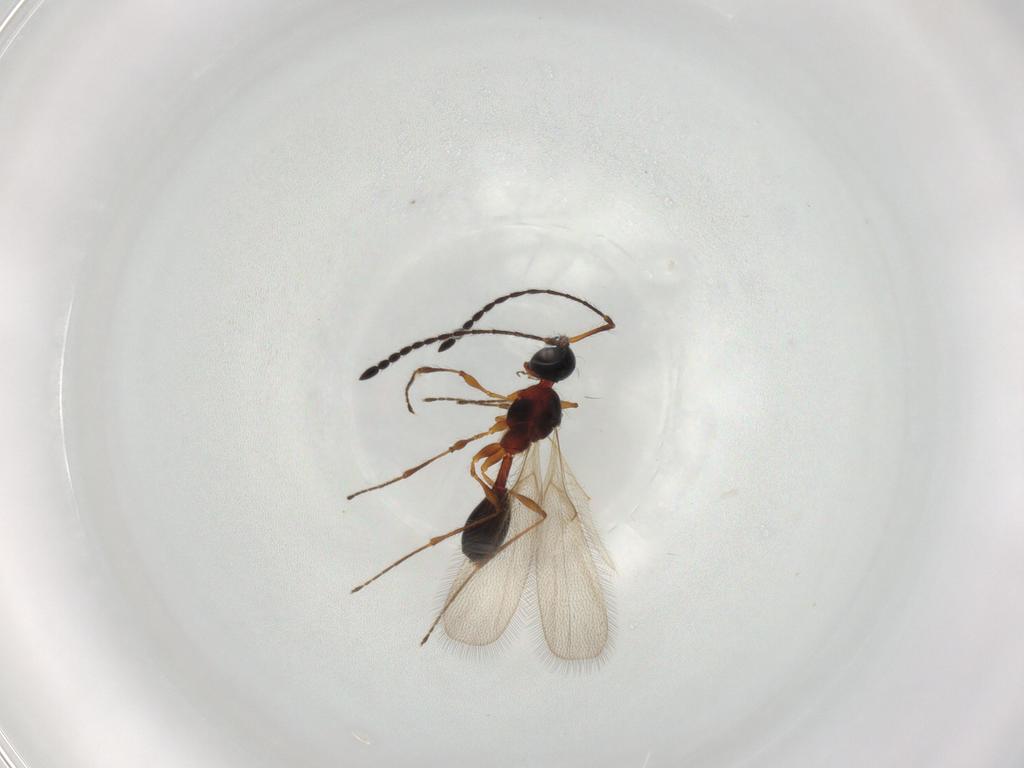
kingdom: Animalia
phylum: Arthropoda
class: Insecta
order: Hymenoptera
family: Diapriidae
